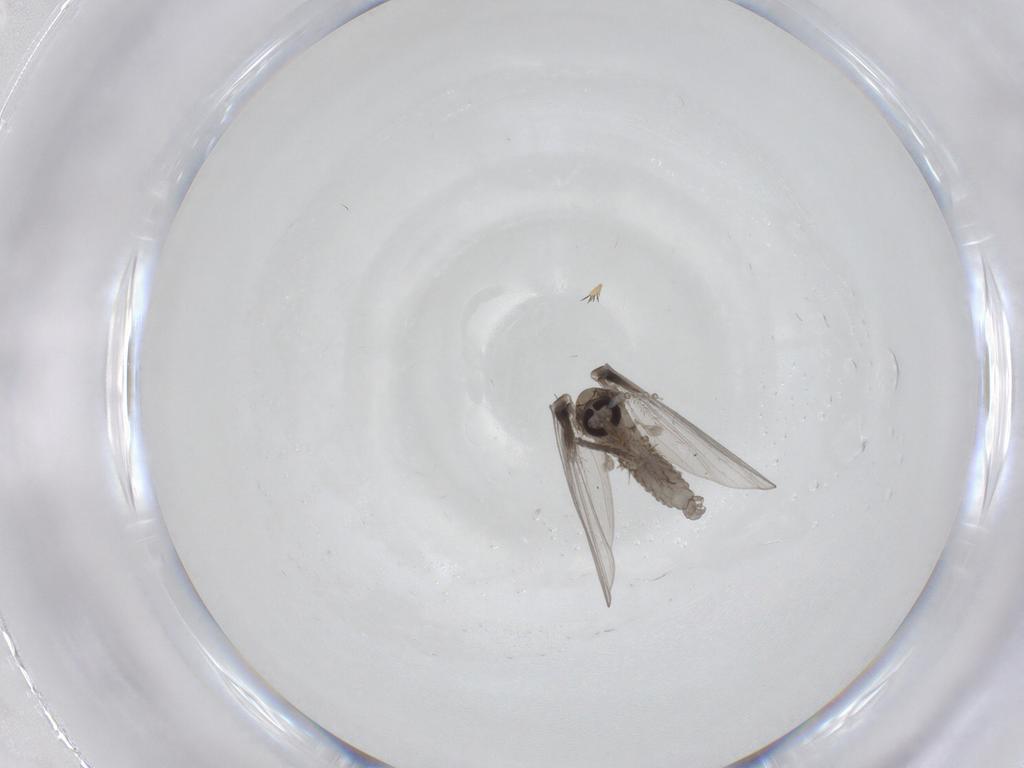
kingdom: Animalia
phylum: Arthropoda
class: Insecta
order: Diptera
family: Psychodidae
